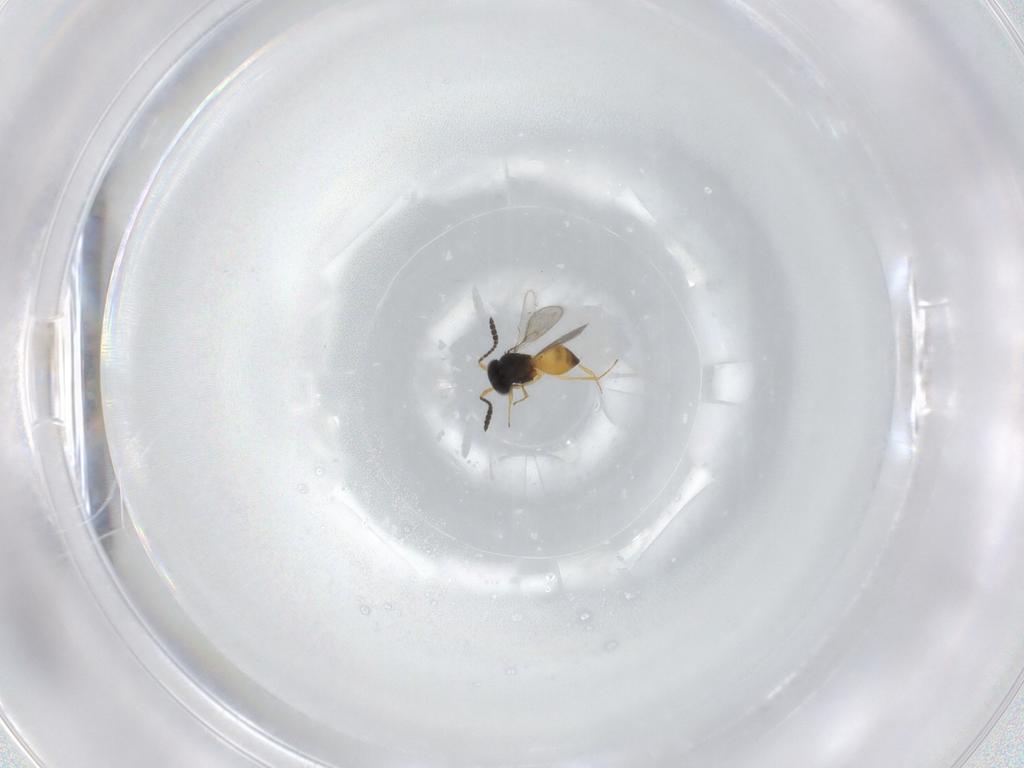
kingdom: Animalia
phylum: Arthropoda
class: Insecta
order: Hymenoptera
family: Scelionidae
